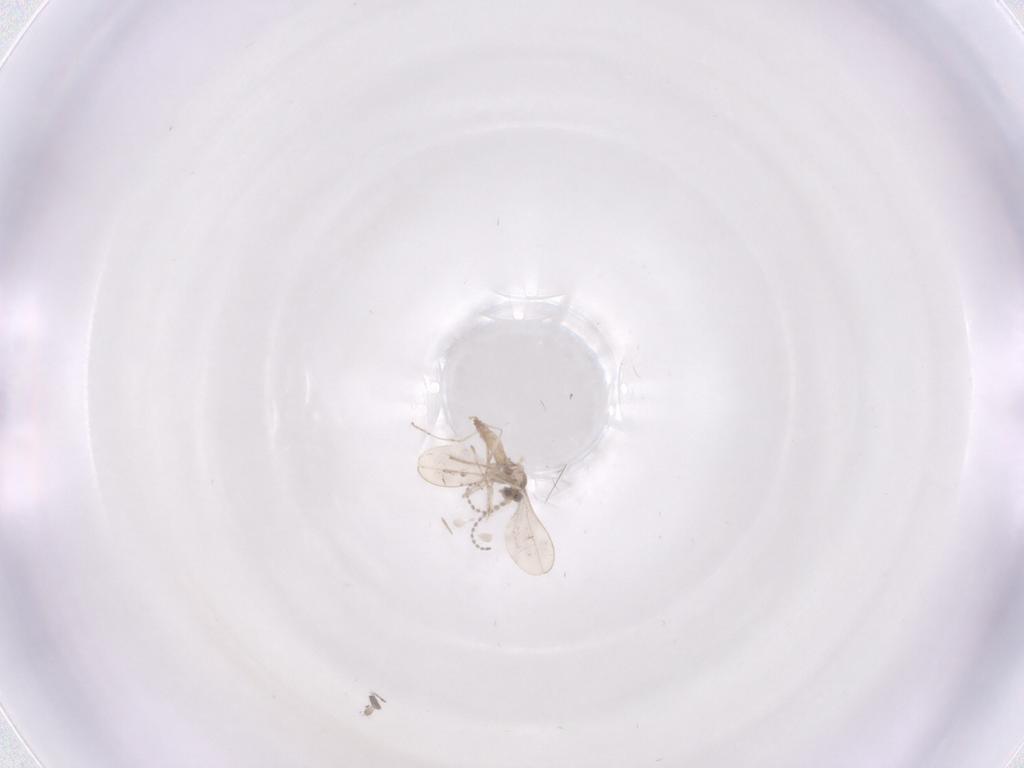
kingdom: Animalia
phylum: Arthropoda
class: Insecta
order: Diptera
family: Cecidomyiidae
